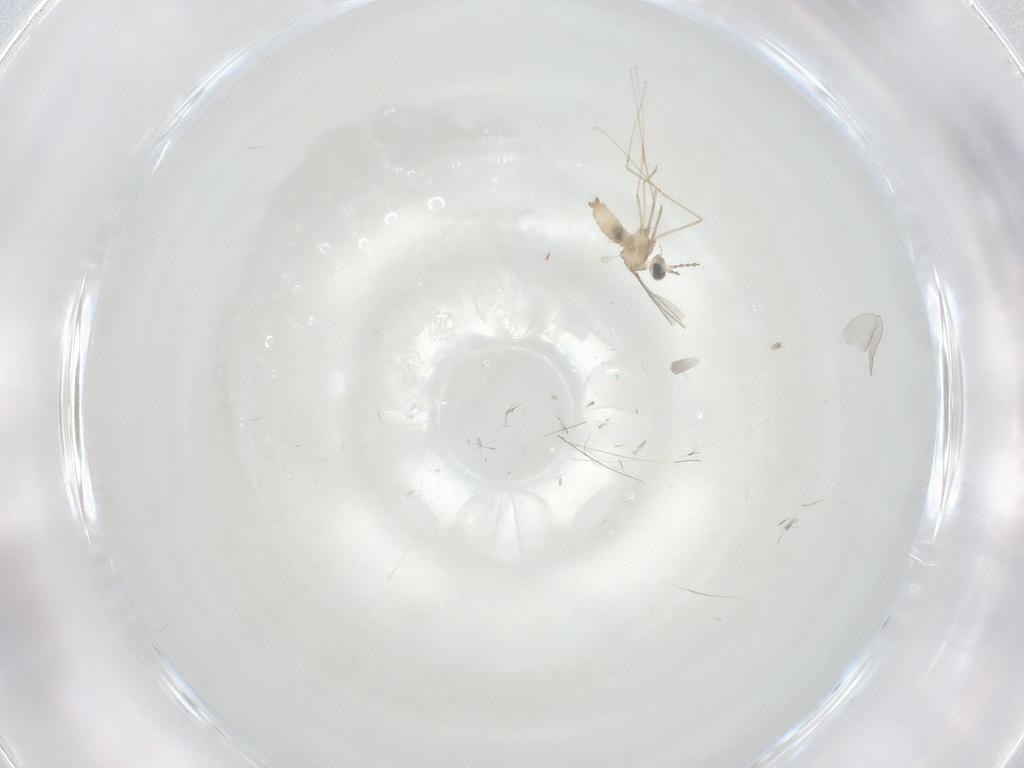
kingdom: Animalia
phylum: Arthropoda
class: Insecta
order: Diptera
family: Cecidomyiidae
